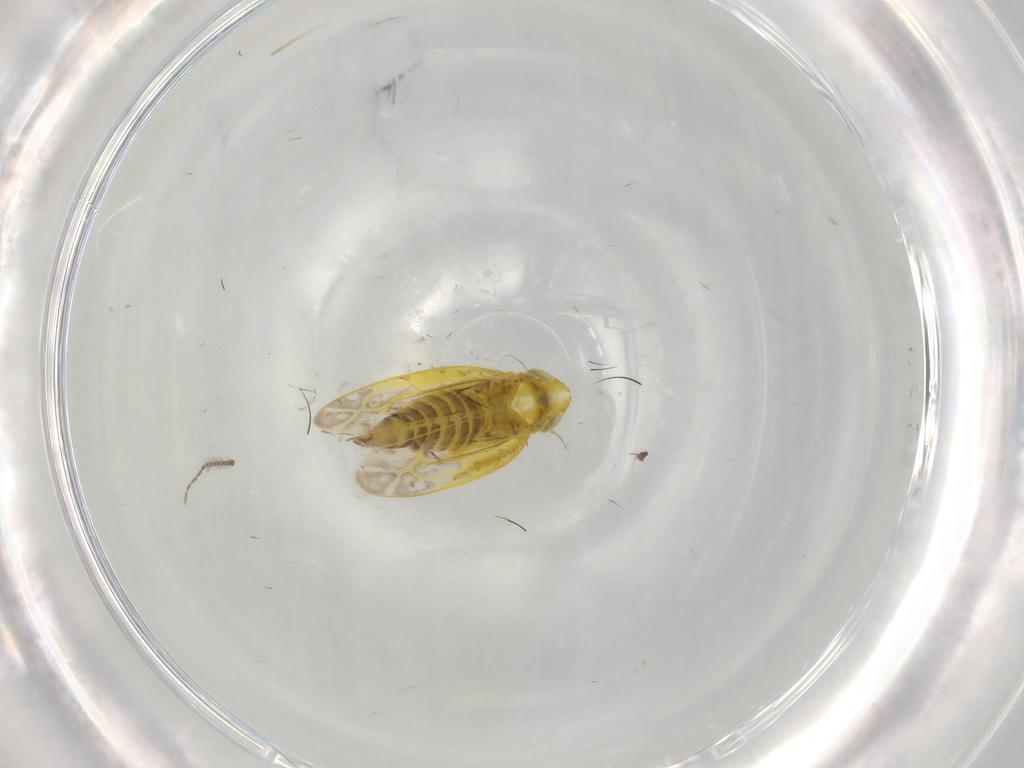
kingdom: Animalia
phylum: Arthropoda
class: Insecta
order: Hemiptera
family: Cicadellidae
